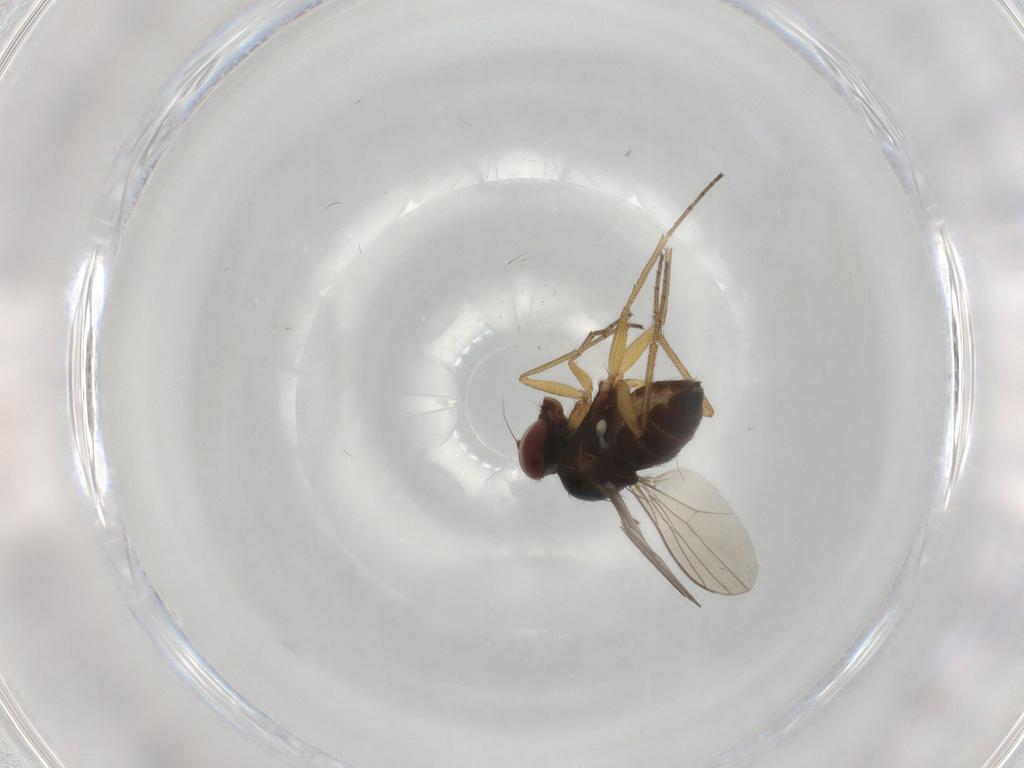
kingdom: Animalia
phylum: Arthropoda
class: Insecta
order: Diptera
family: Dolichopodidae
